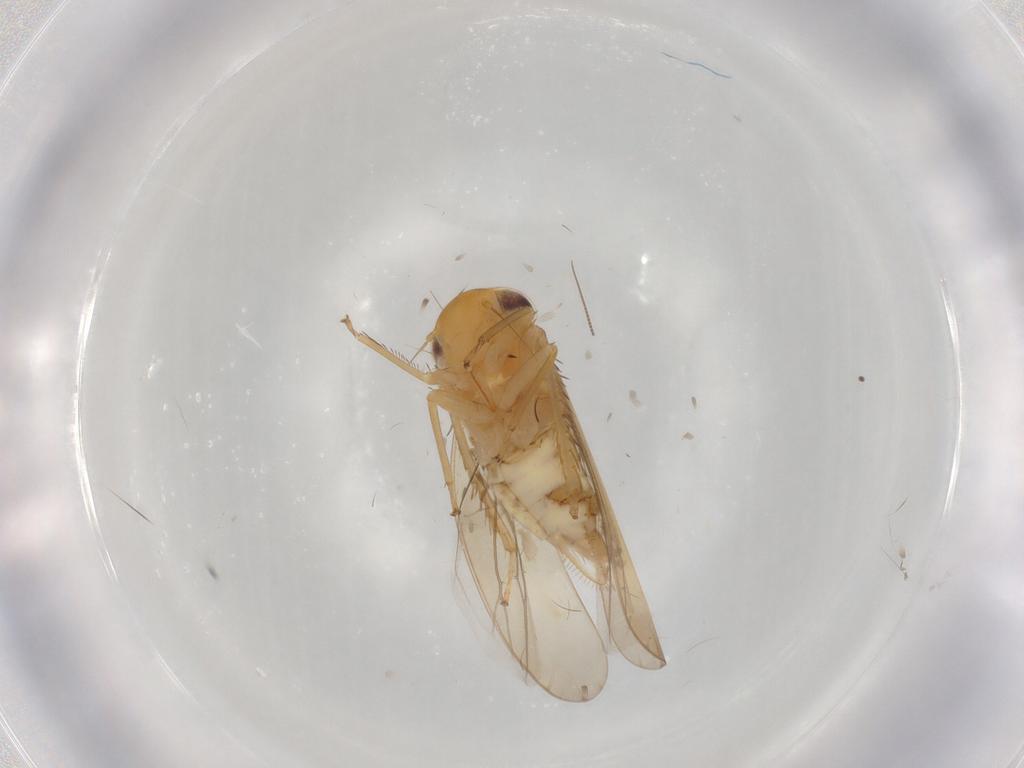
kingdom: Animalia
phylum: Arthropoda
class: Insecta
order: Hemiptera
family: Cicadellidae
